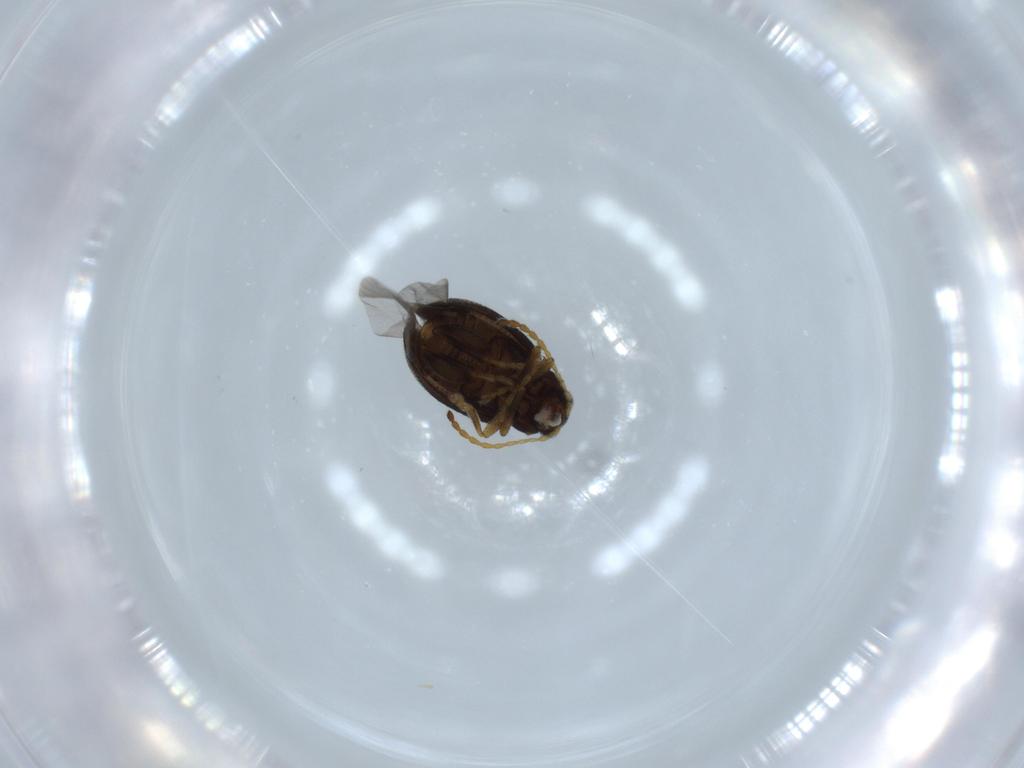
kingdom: Animalia
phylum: Arthropoda
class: Insecta
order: Coleoptera
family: Chrysomelidae
